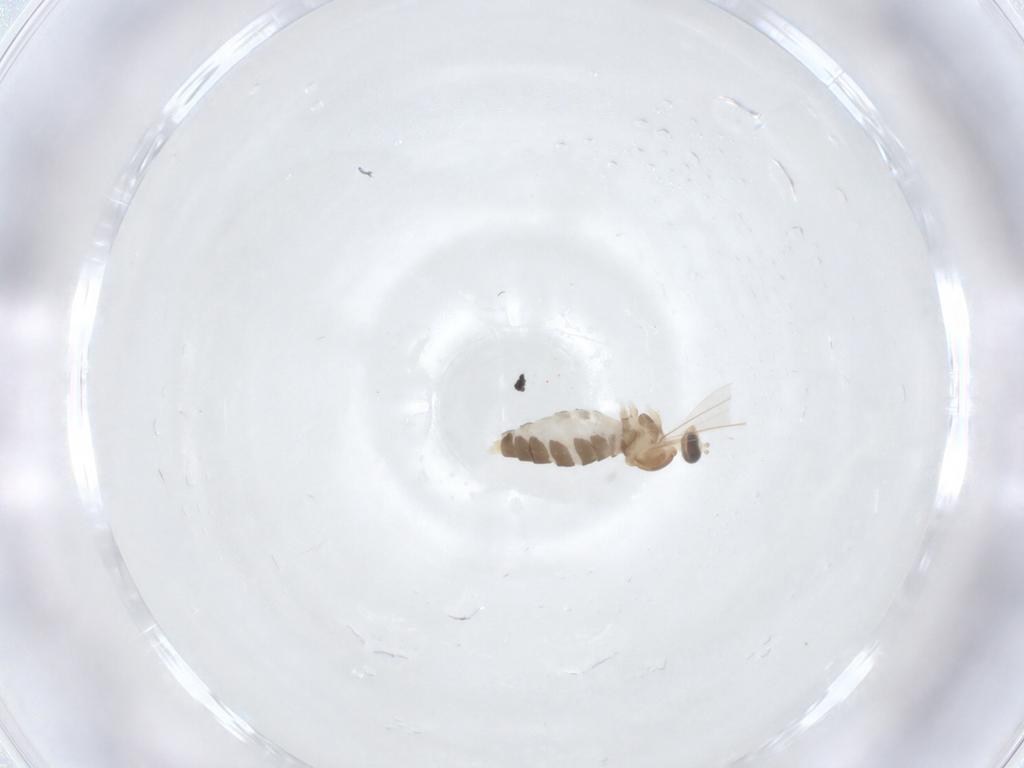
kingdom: Animalia
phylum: Arthropoda
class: Insecta
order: Diptera
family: Cecidomyiidae
